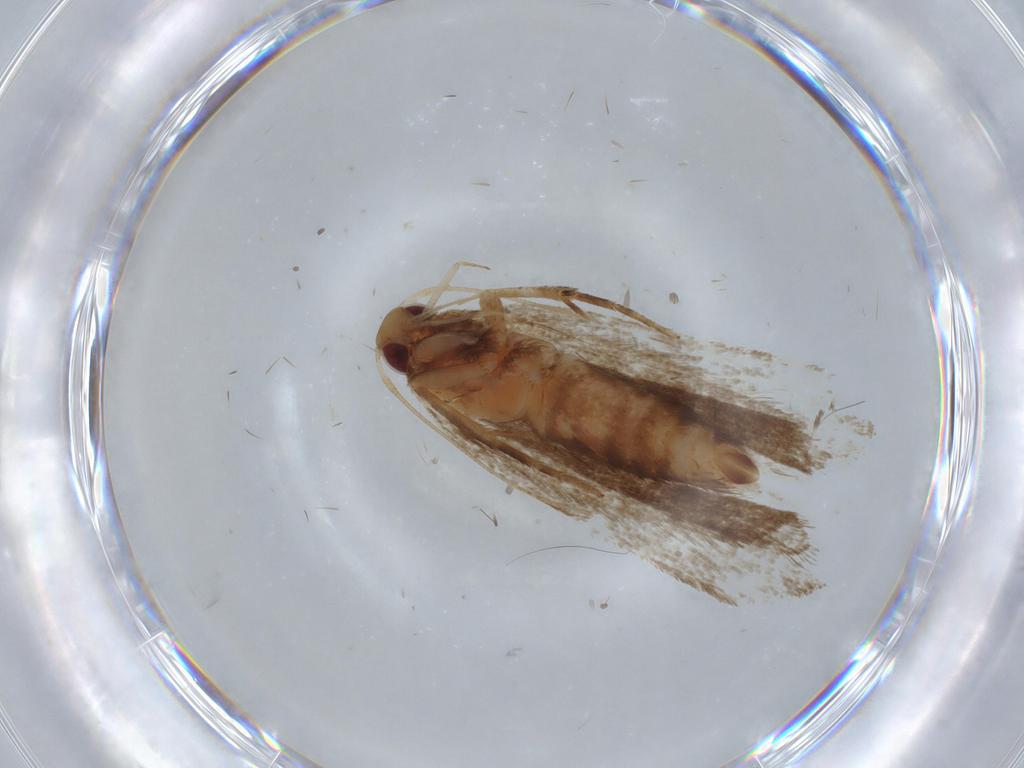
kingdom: Animalia
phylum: Arthropoda
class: Insecta
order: Lepidoptera
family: Gelechiidae
